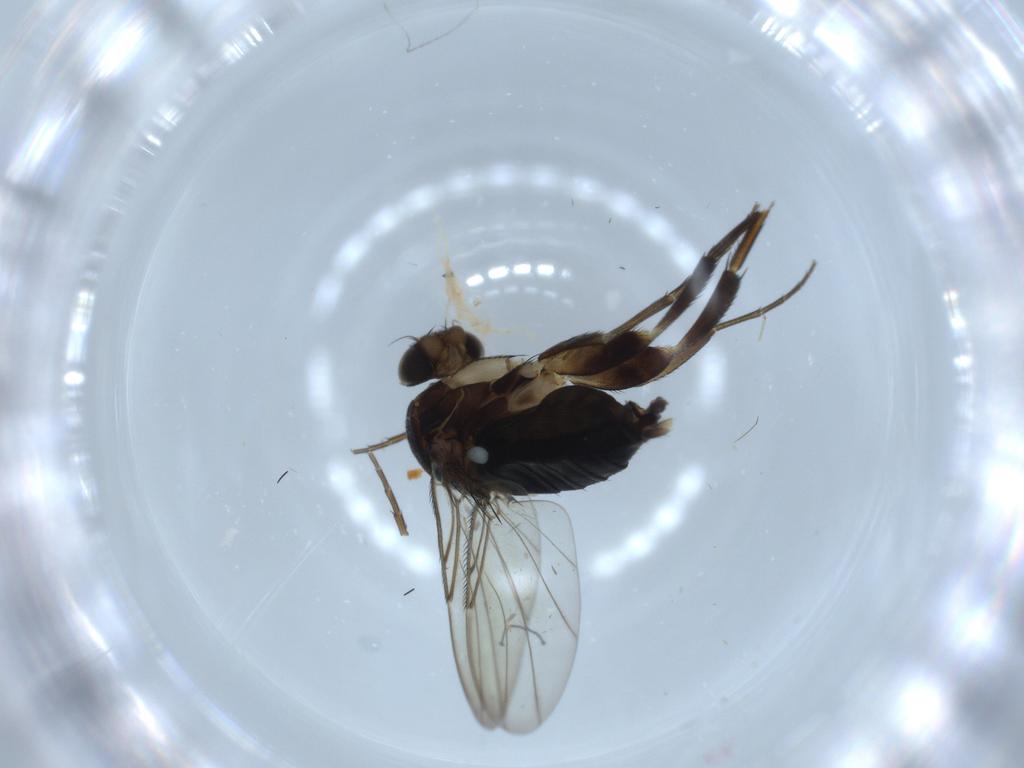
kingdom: Animalia
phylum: Arthropoda
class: Insecta
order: Diptera
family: Phoridae
